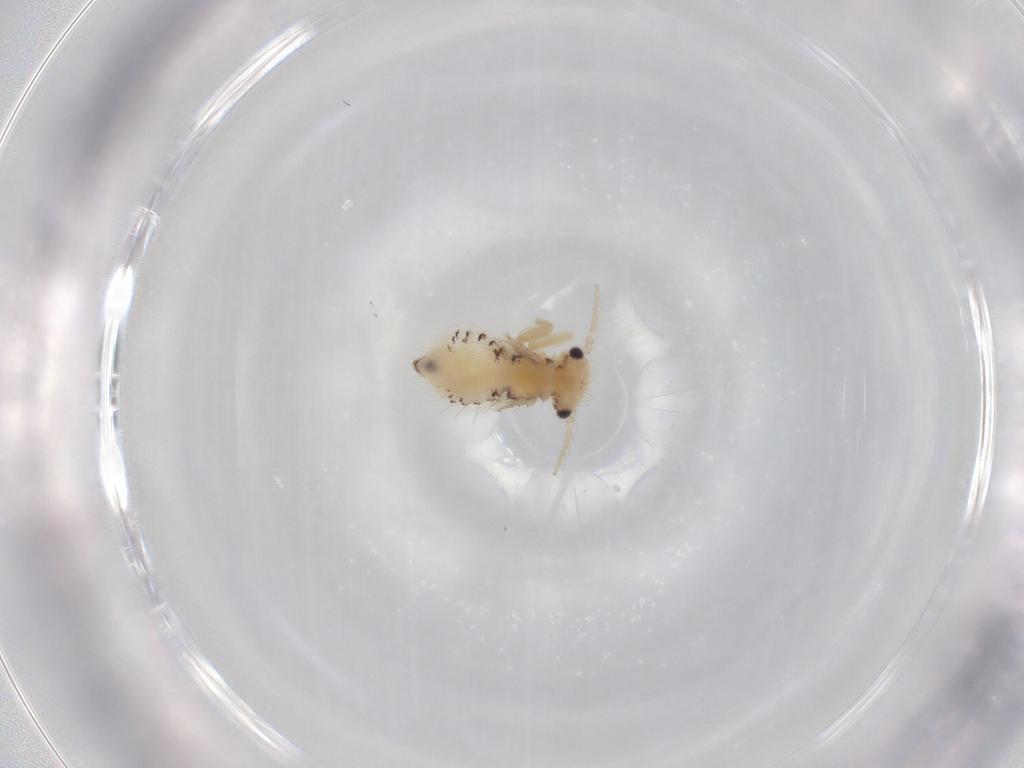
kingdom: Animalia
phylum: Arthropoda
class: Insecta
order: Psocodea
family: Myopsocidae
